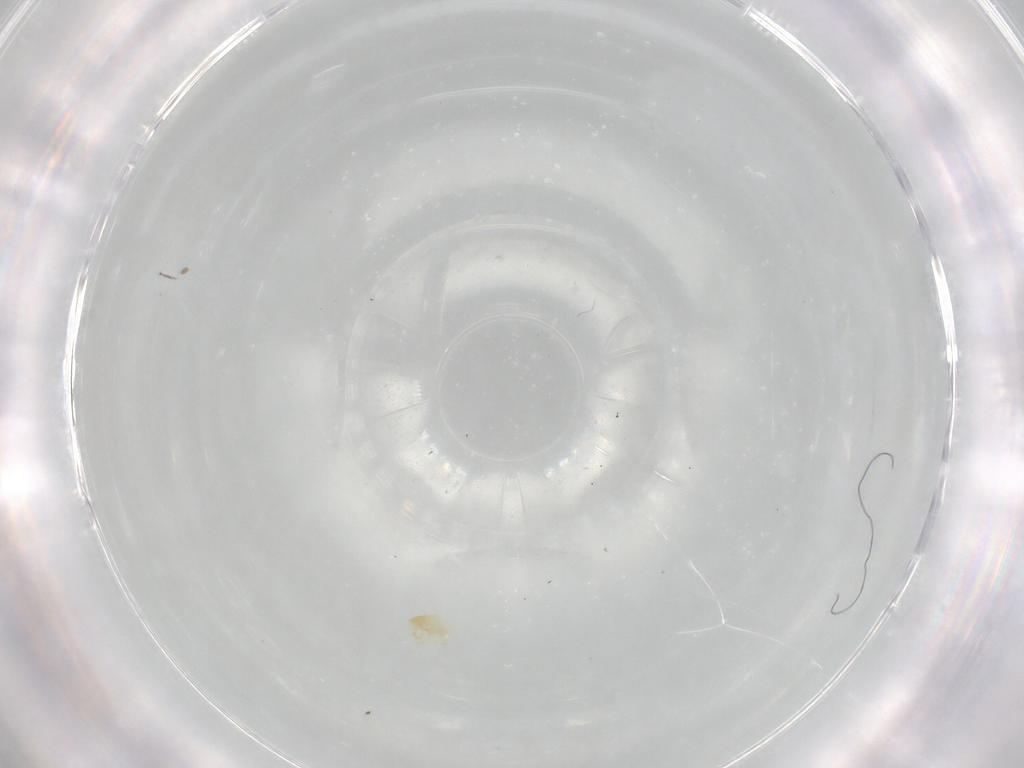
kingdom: Animalia
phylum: Arthropoda
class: Arachnida
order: Trombidiformes
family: Trombidiidae
